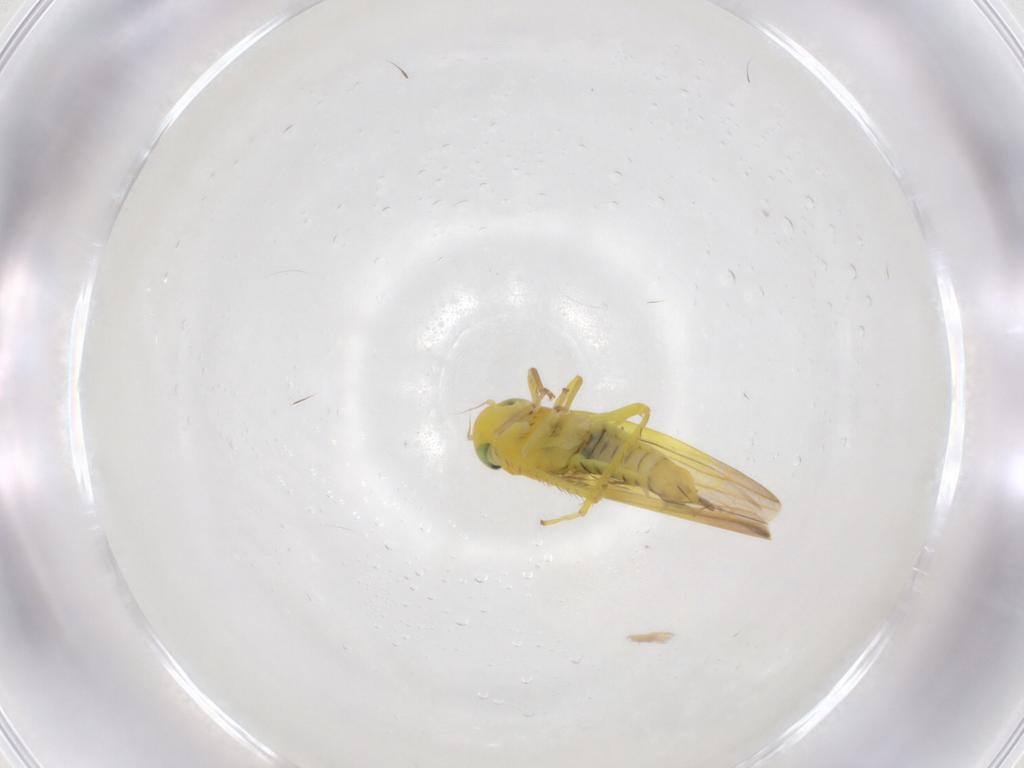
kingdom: Animalia
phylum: Arthropoda
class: Insecta
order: Hemiptera
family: Cicadellidae
